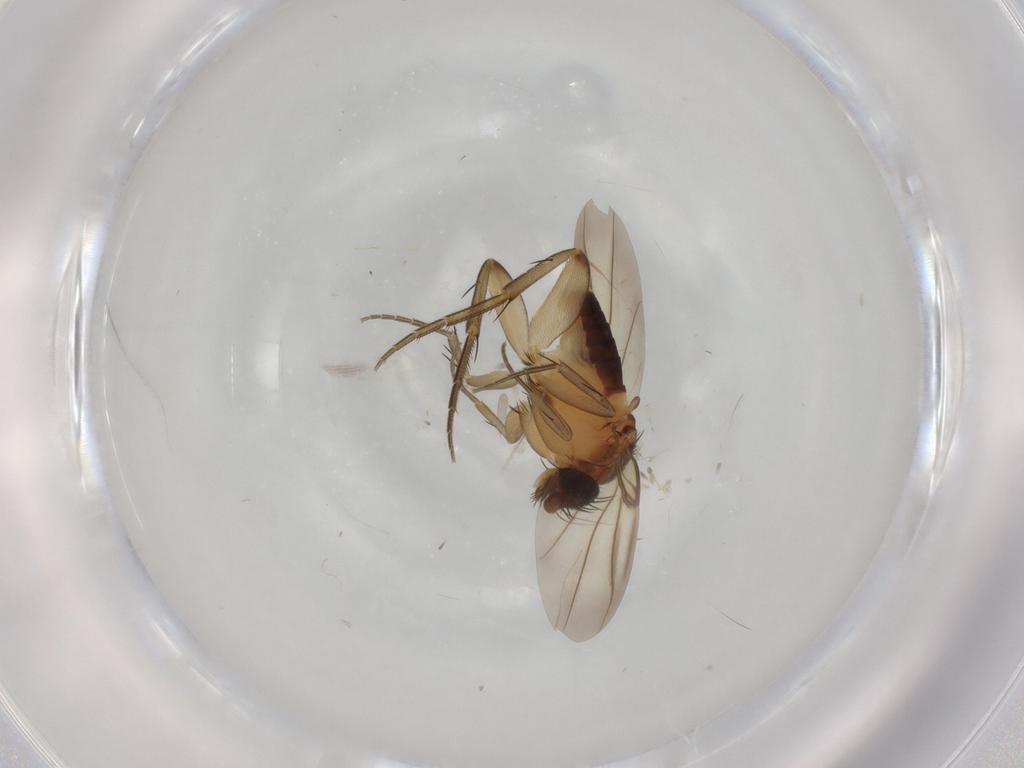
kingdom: Animalia
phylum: Arthropoda
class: Insecta
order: Diptera
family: Phoridae
